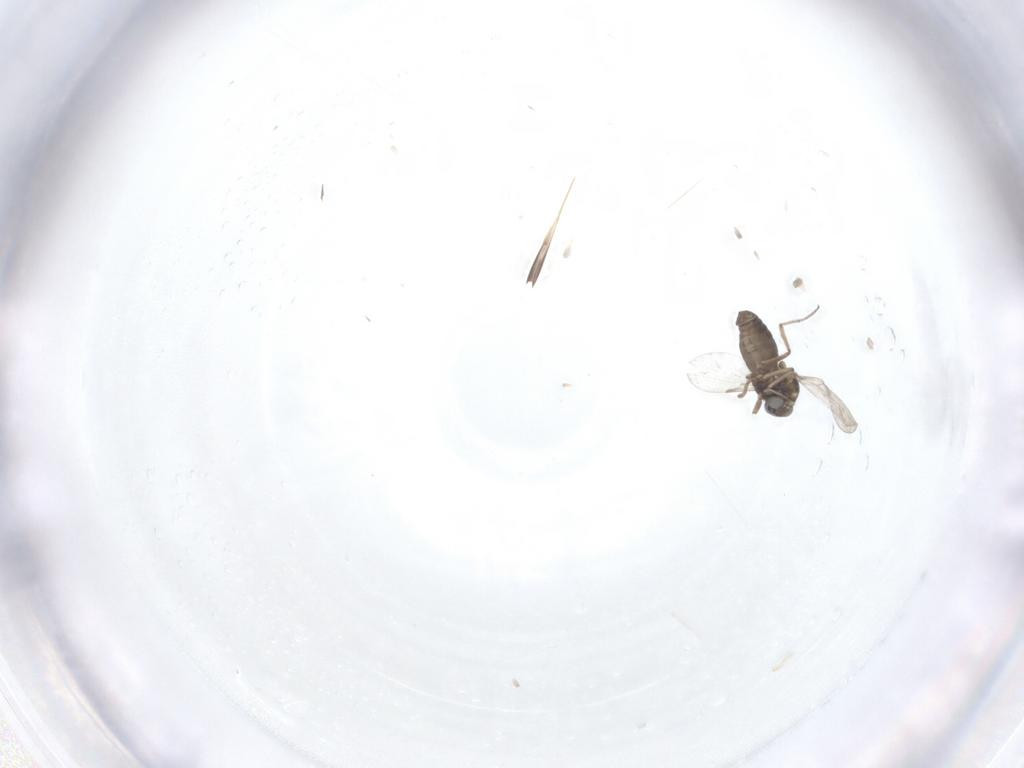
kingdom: Animalia
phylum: Arthropoda
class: Insecta
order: Diptera
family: Ceratopogonidae
